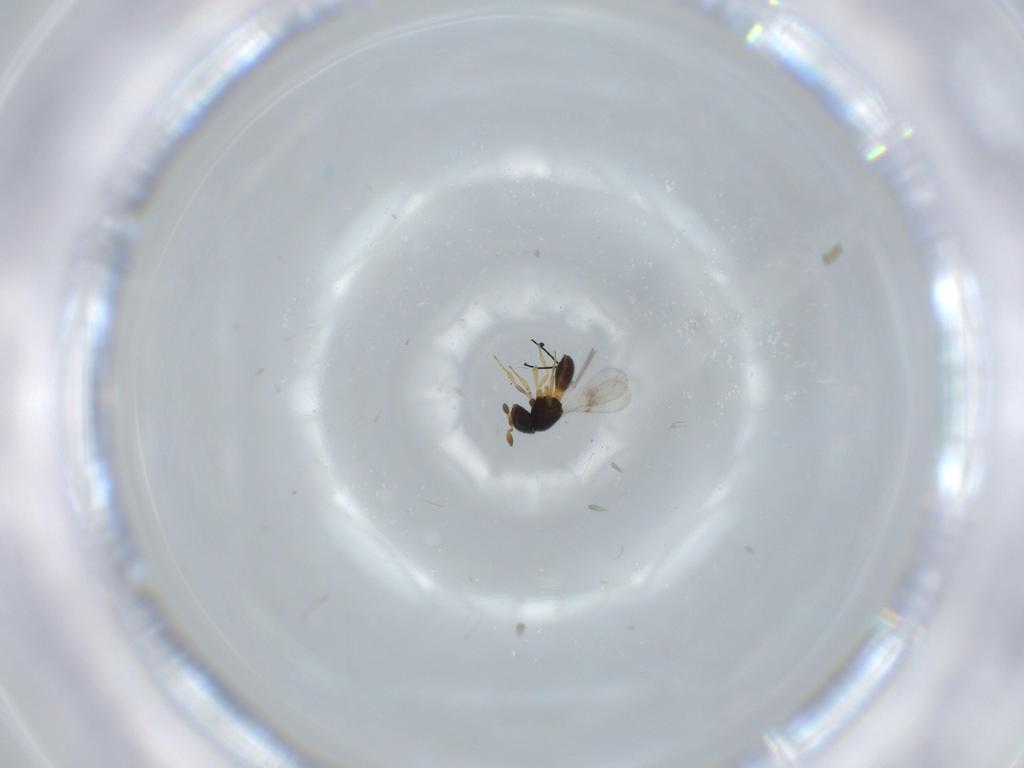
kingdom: Animalia
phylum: Arthropoda
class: Insecta
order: Hymenoptera
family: Scelionidae
